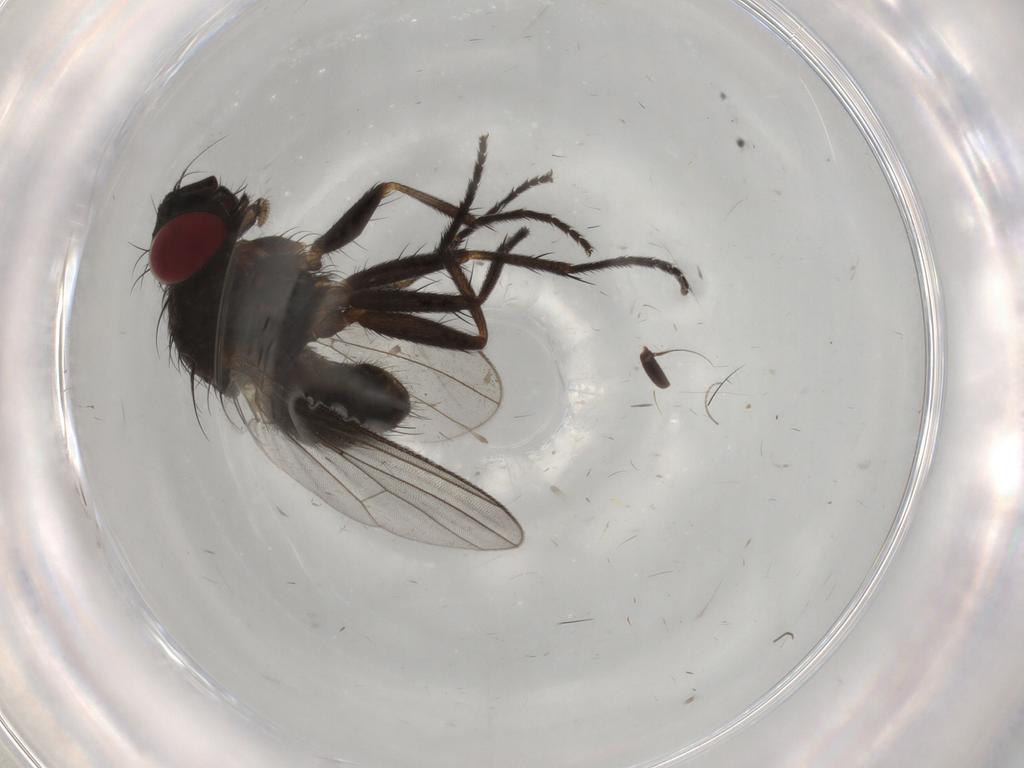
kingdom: Animalia
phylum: Arthropoda
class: Insecta
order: Diptera
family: Muscidae
